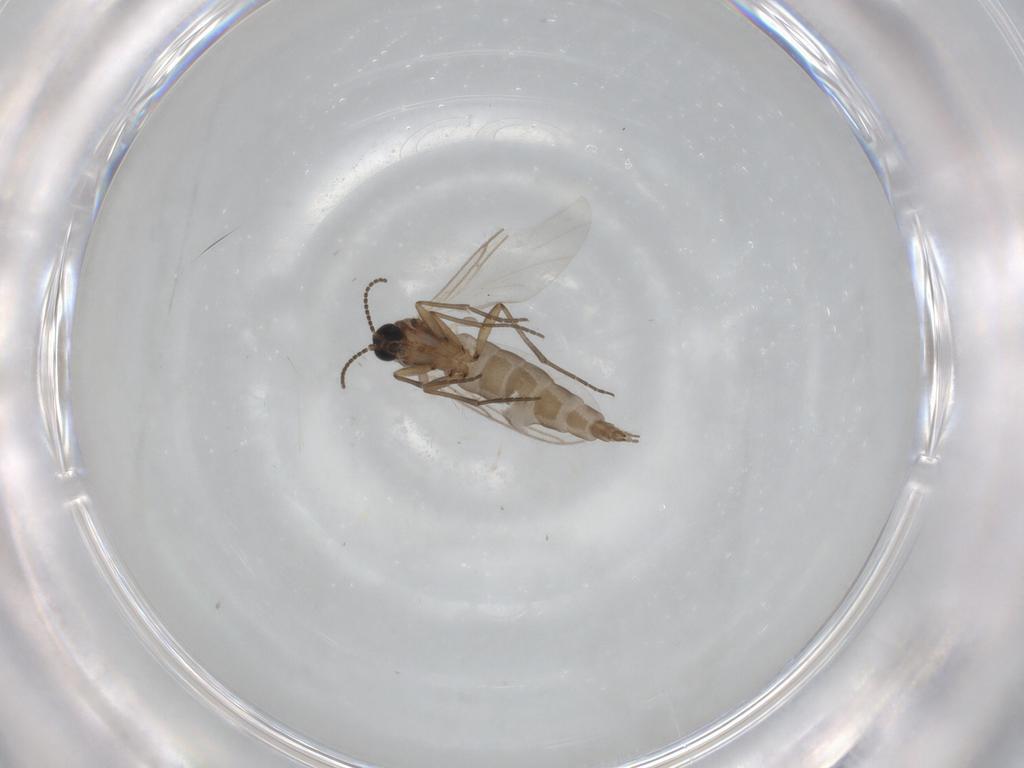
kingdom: Animalia
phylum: Arthropoda
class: Insecta
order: Diptera
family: Sciaridae
